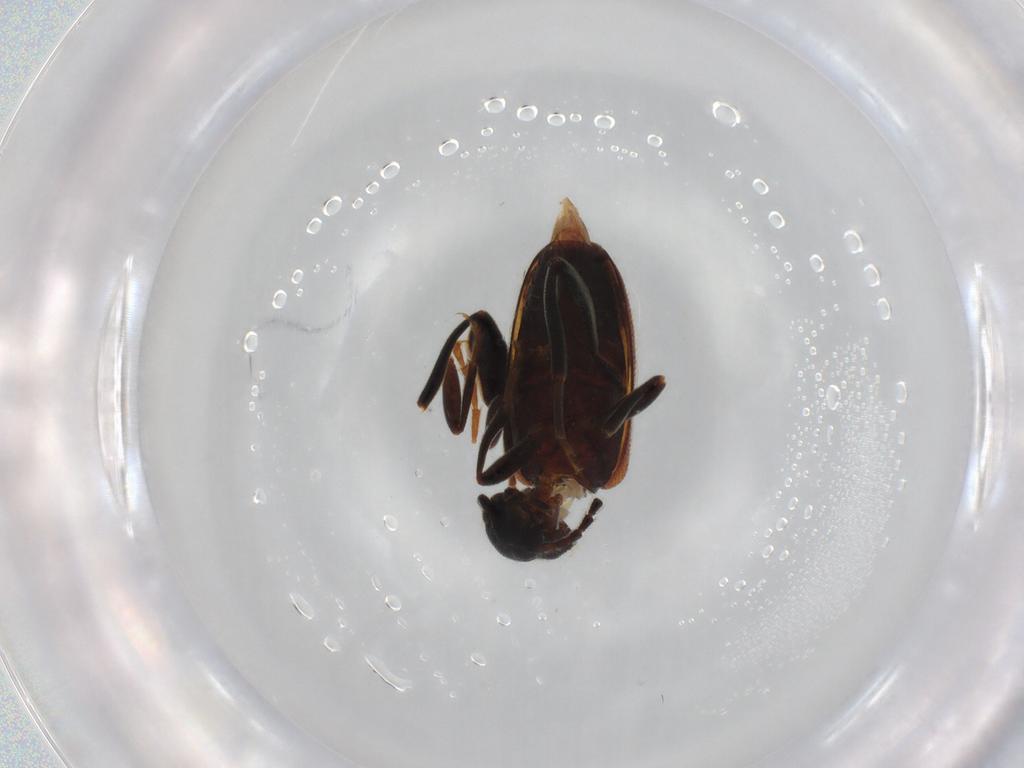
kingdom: Animalia
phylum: Arthropoda
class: Insecta
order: Coleoptera
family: Aderidae
